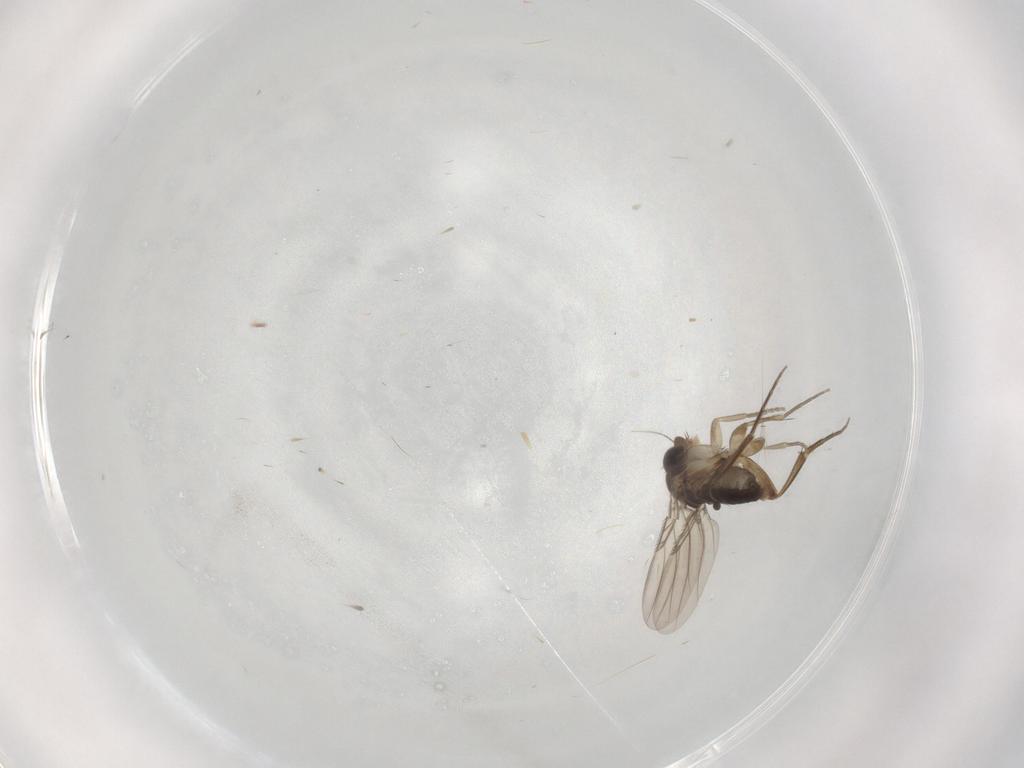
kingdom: Animalia
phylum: Arthropoda
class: Insecta
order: Diptera
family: Phoridae
